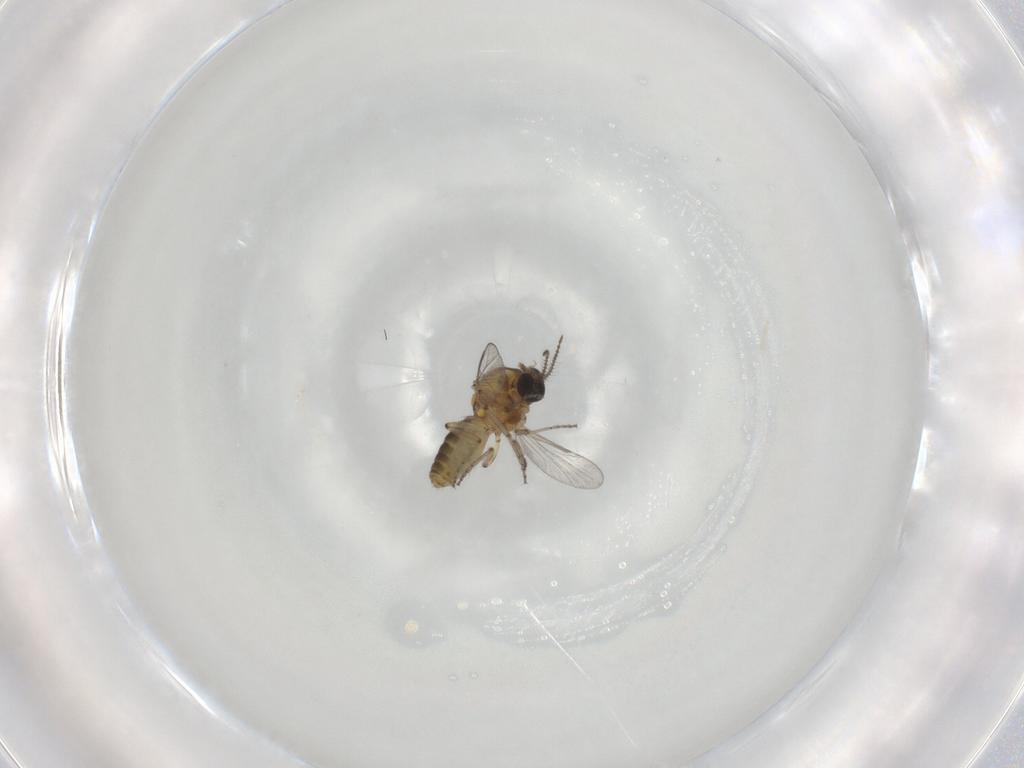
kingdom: Animalia
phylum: Arthropoda
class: Insecta
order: Diptera
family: Ceratopogonidae
